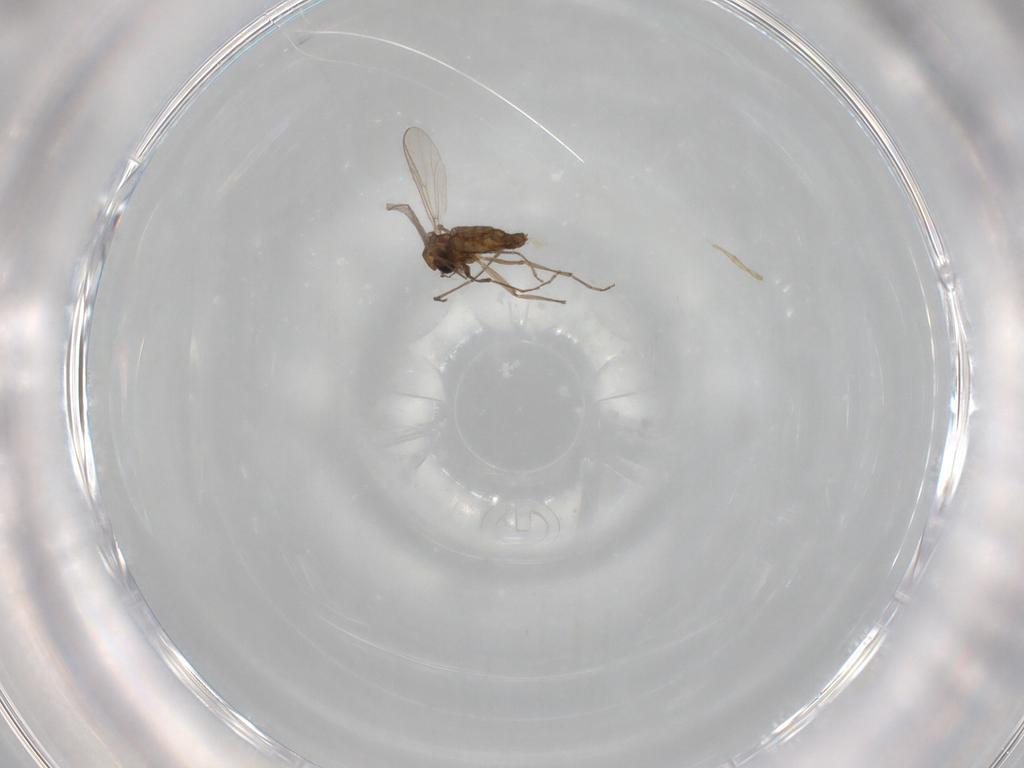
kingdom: Animalia
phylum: Arthropoda
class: Insecta
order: Diptera
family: Chironomidae
